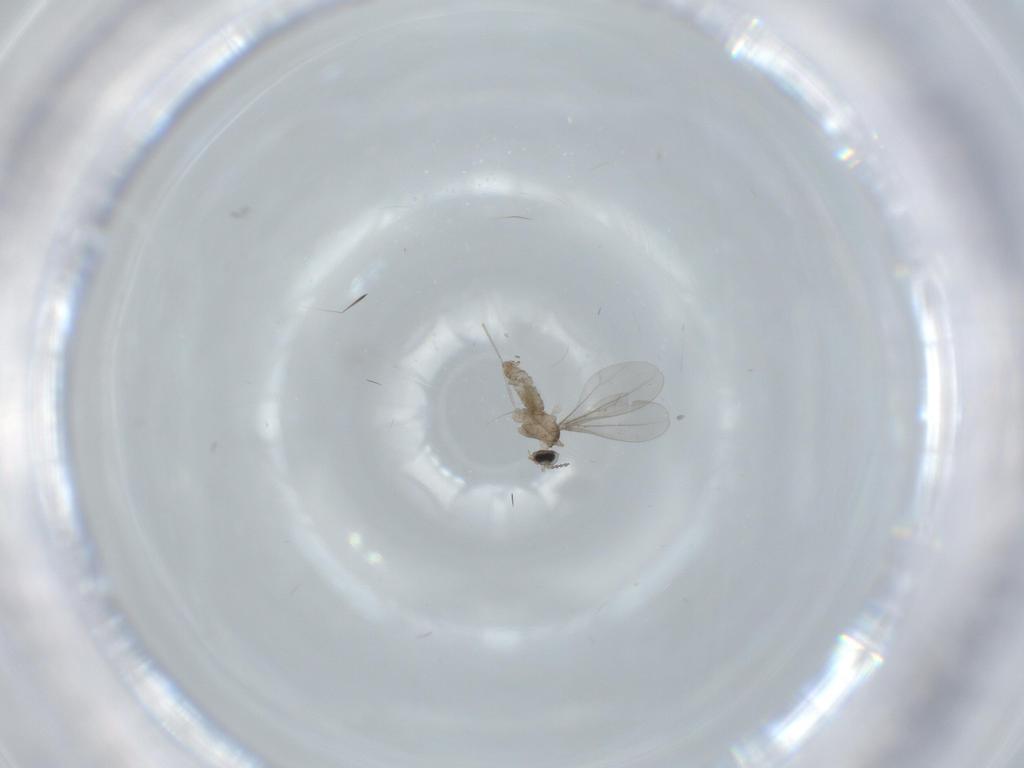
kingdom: Animalia
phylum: Arthropoda
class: Insecta
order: Diptera
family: Cecidomyiidae
